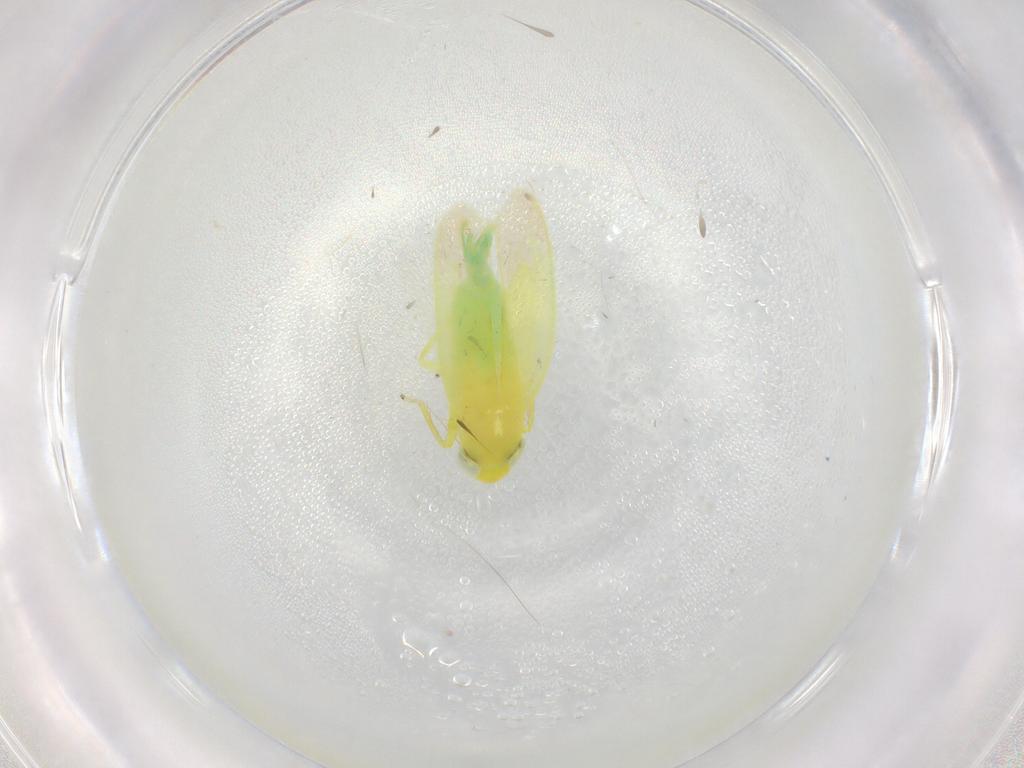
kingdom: Animalia
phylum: Arthropoda
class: Insecta
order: Hemiptera
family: Cicadellidae
